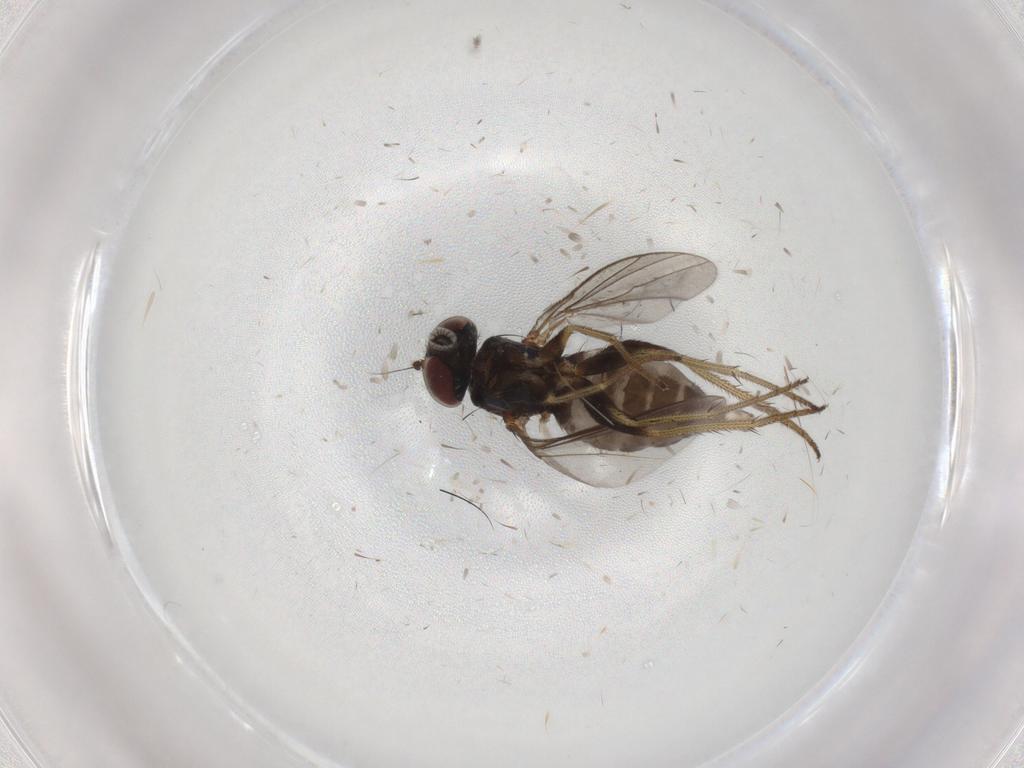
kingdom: Animalia
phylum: Arthropoda
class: Insecta
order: Diptera
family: Dolichopodidae
